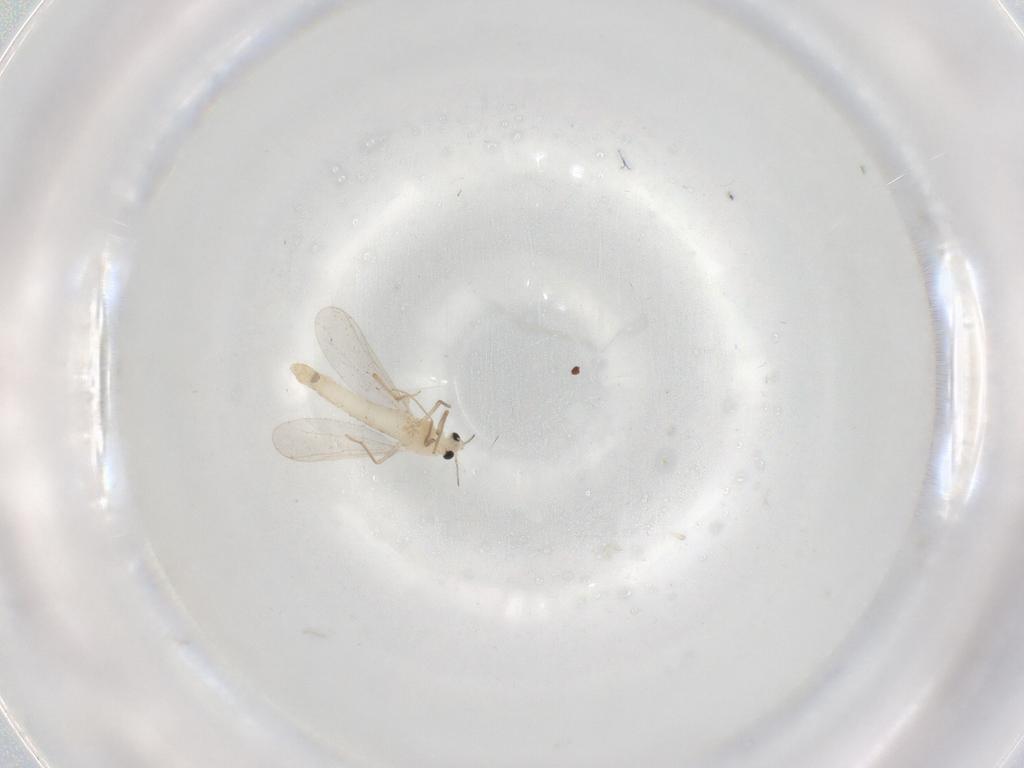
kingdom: Animalia
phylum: Arthropoda
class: Insecta
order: Diptera
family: Chironomidae
